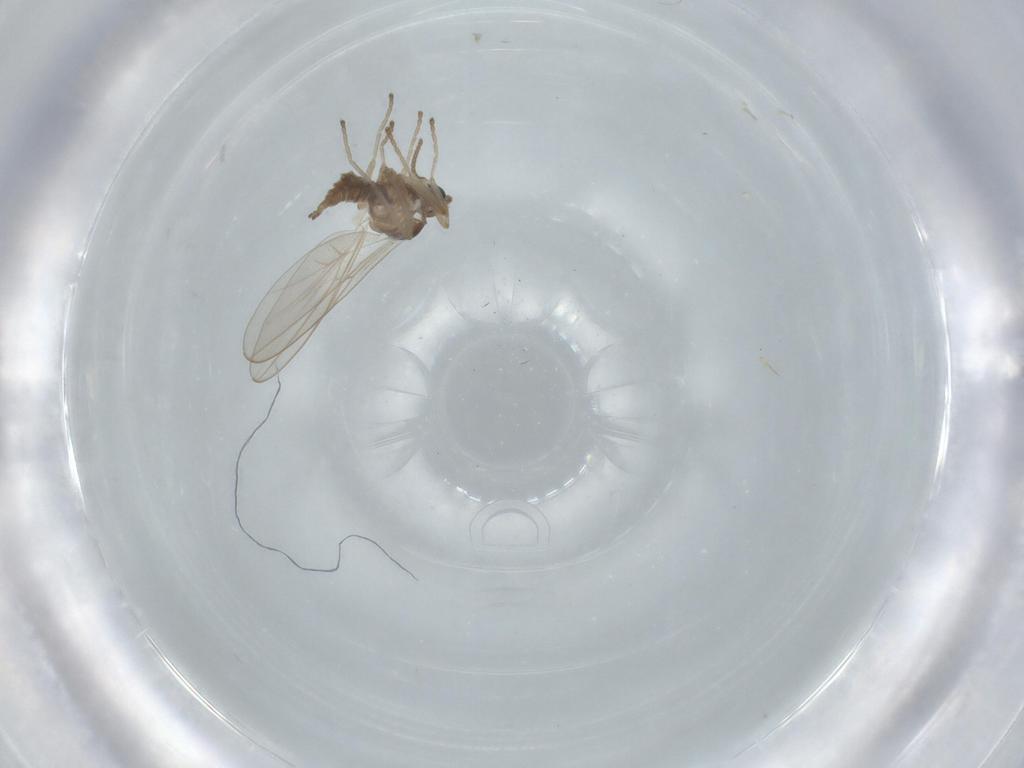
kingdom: Animalia
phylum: Arthropoda
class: Insecta
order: Diptera
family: Cecidomyiidae
